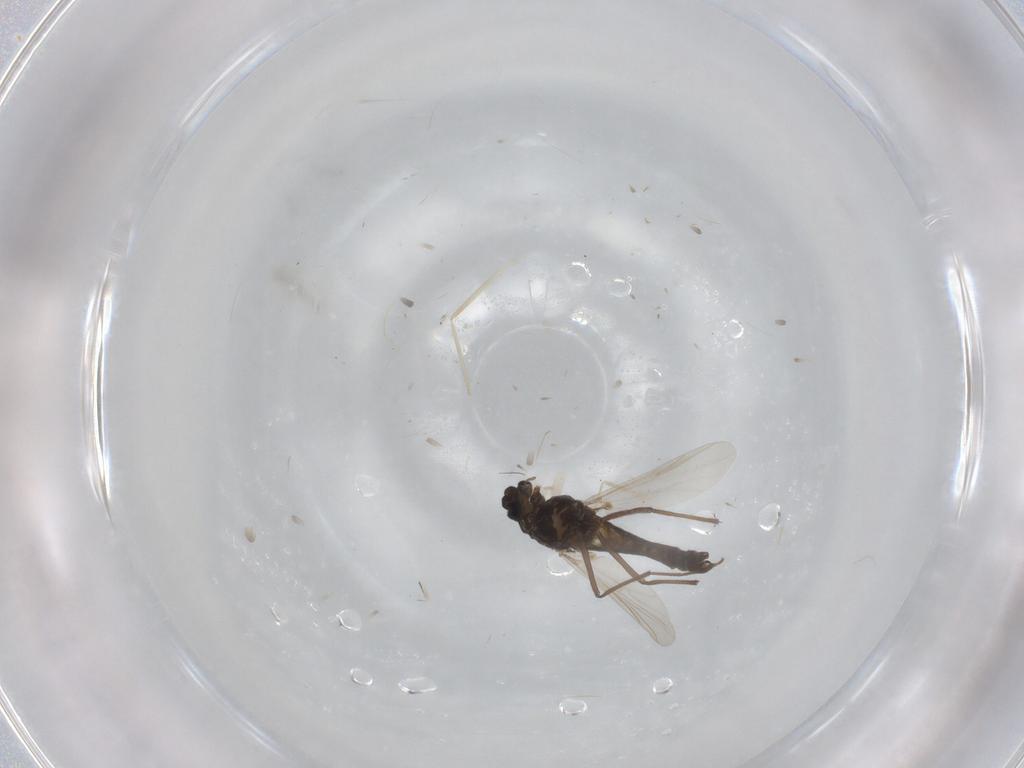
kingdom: Animalia
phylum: Arthropoda
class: Insecta
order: Diptera
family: Chironomidae
